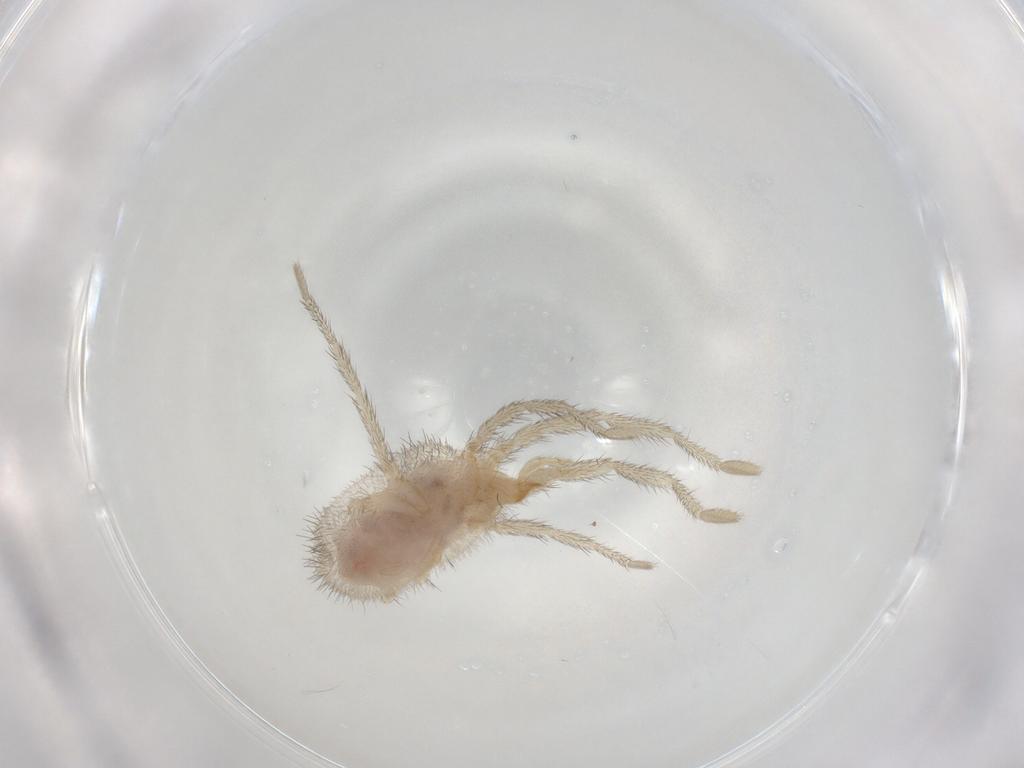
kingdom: Animalia
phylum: Arthropoda
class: Arachnida
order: Trombidiformes
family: Erythraeidae
